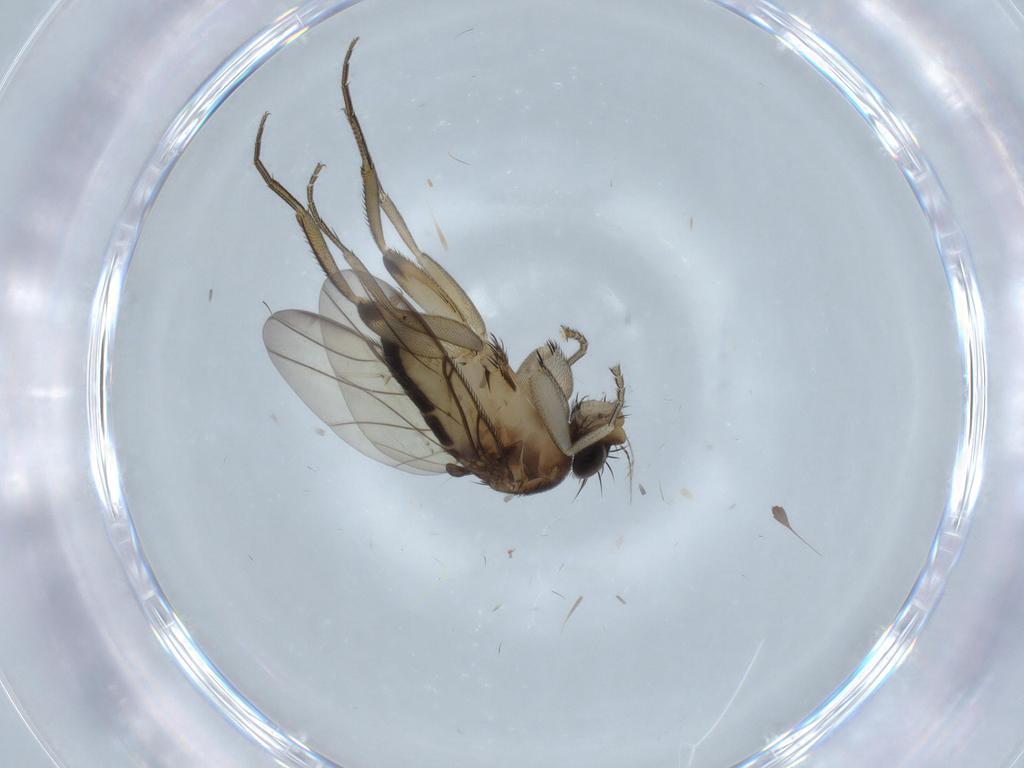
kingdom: Animalia
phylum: Arthropoda
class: Insecta
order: Diptera
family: Phoridae
